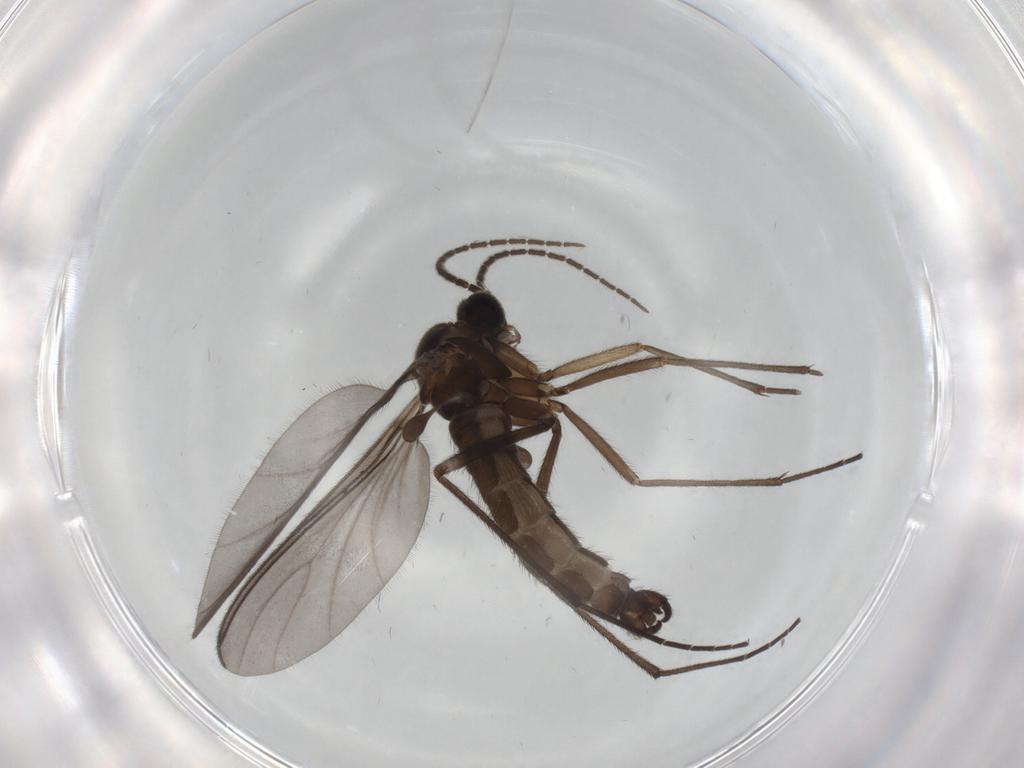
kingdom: Animalia
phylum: Arthropoda
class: Insecta
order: Diptera
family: Sciaridae
